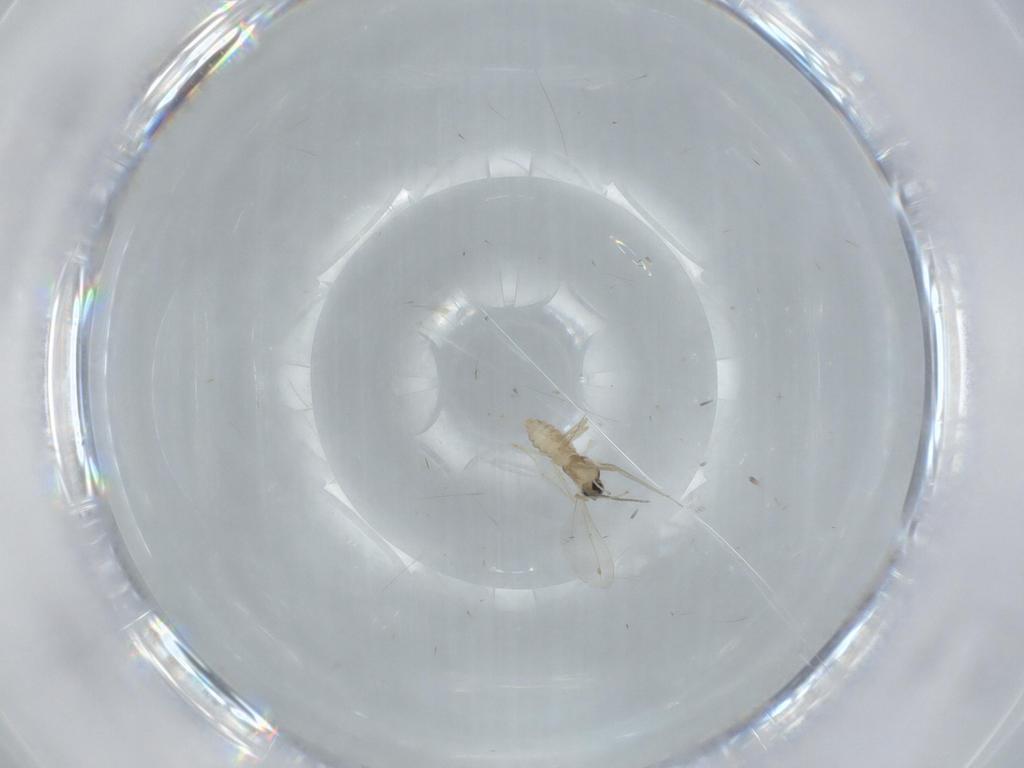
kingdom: Animalia
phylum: Arthropoda
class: Insecta
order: Diptera
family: Cecidomyiidae
